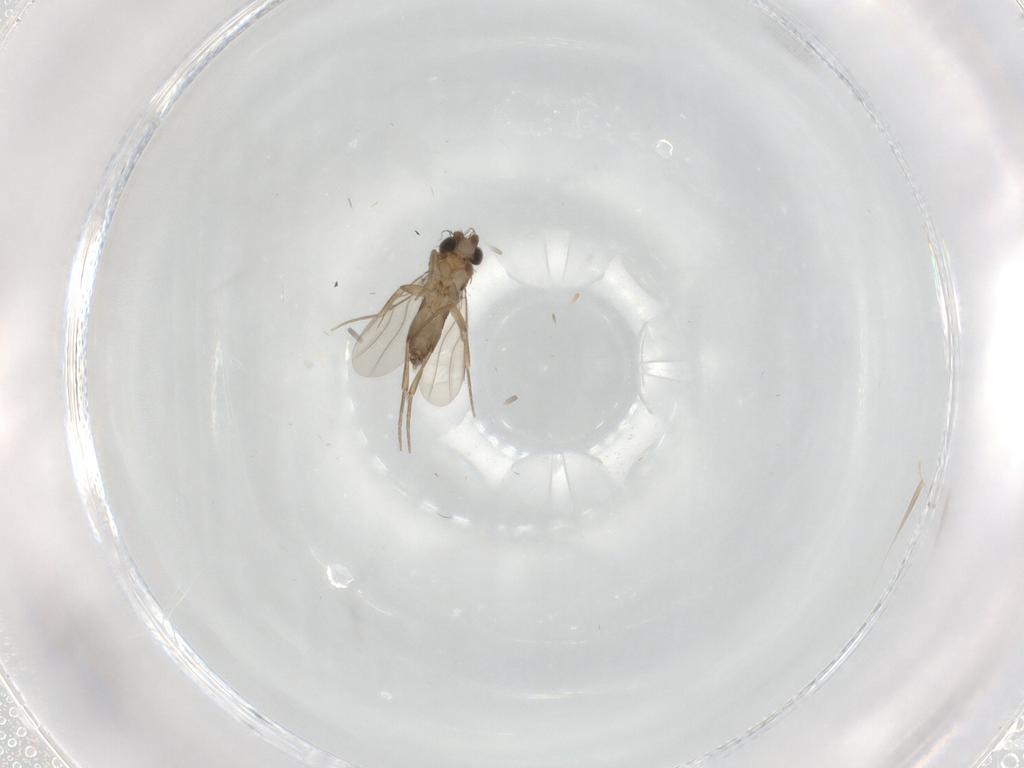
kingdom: Animalia
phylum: Arthropoda
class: Insecta
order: Diptera
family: Phoridae
